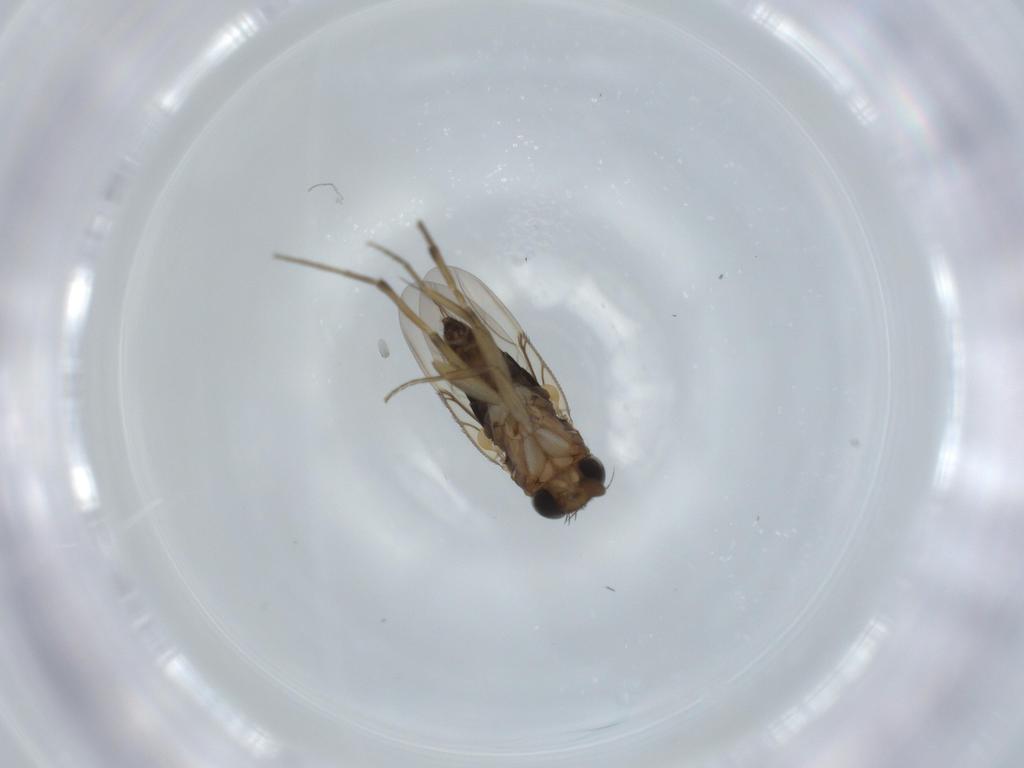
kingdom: Animalia
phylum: Arthropoda
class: Insecta
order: Diptera
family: Phoridae
